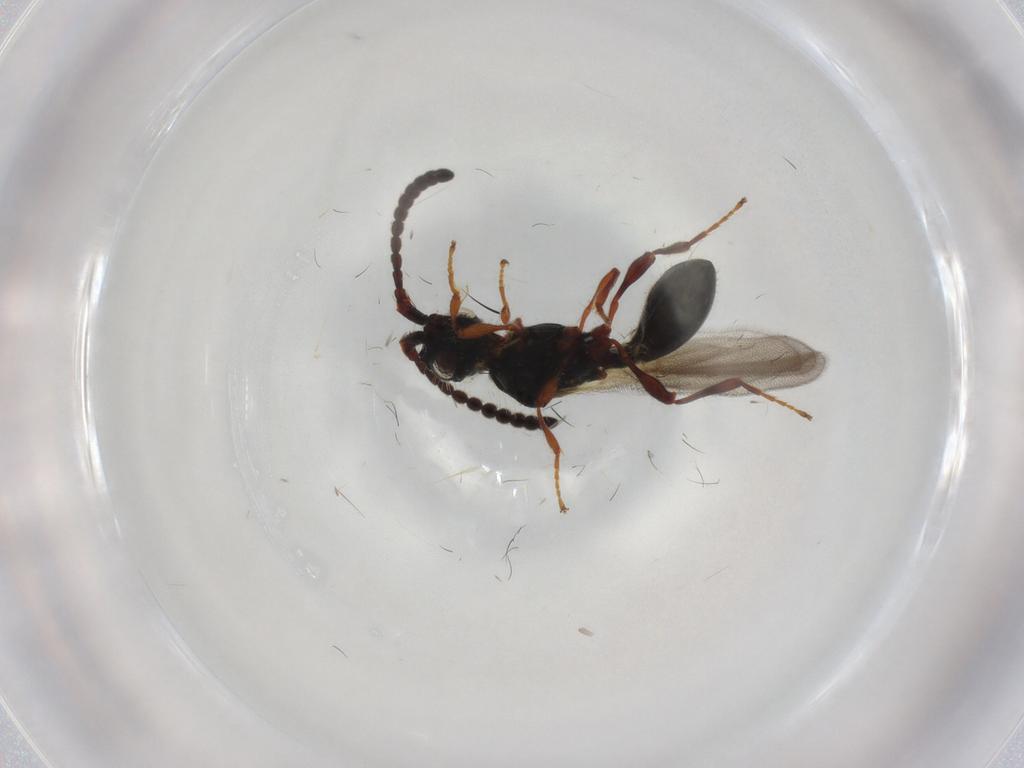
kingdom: Animalia
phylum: Arthropoda
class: Insecta
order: Hymenoptera
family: Diapriidae
